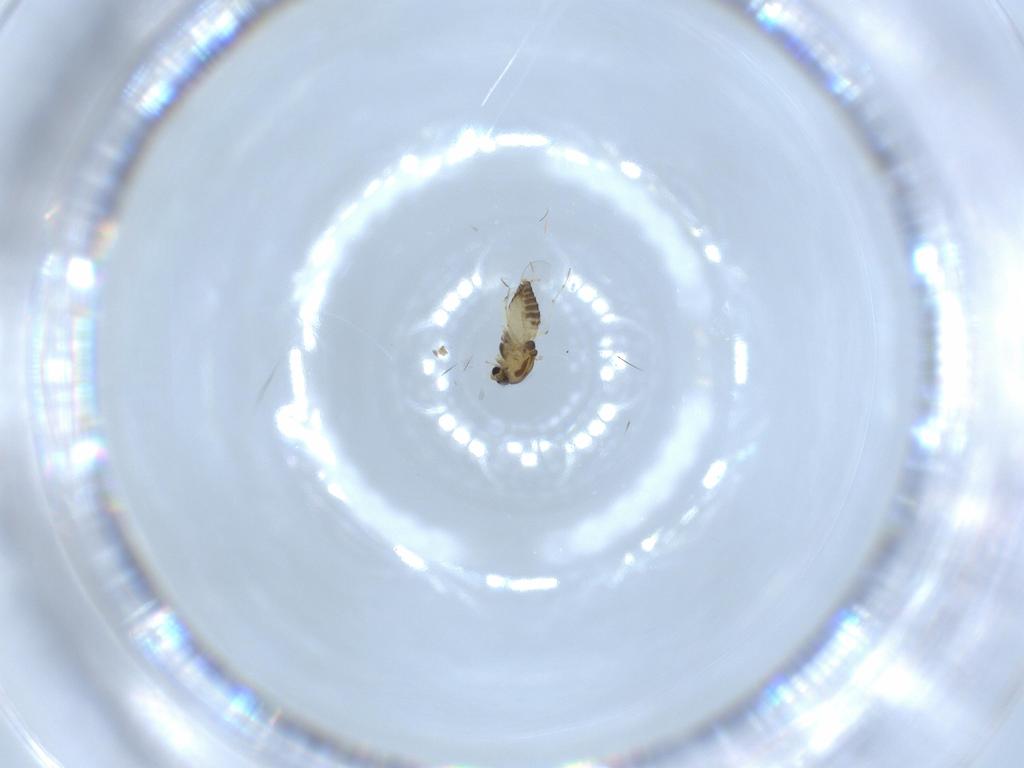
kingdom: Animalia
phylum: Arthropoda
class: Insecta
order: Diptera
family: Chironomidae
